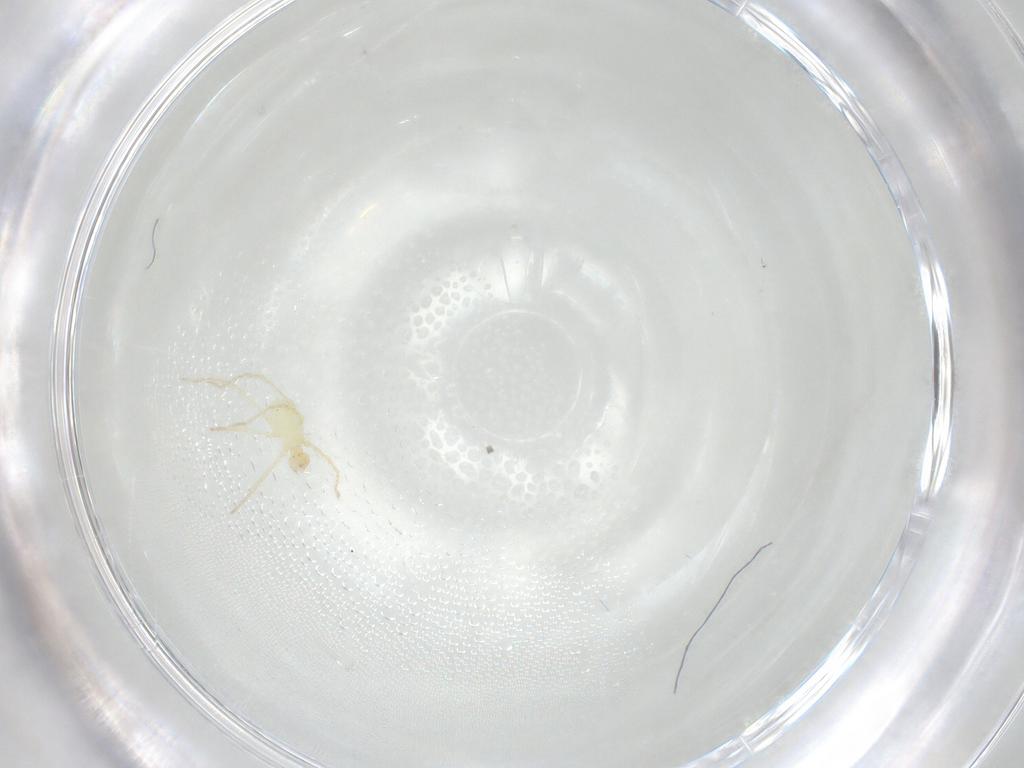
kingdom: Animalia
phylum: Arthropoda
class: Arachnida
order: Trombidiformes
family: Erythraeidae
